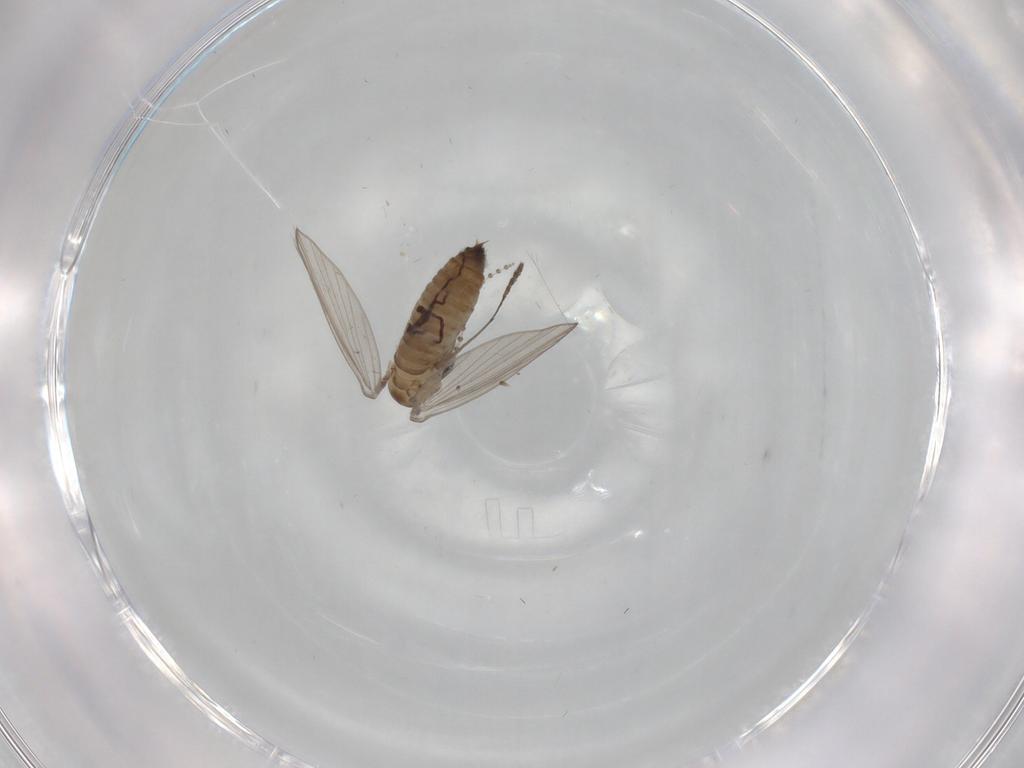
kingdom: Animalia
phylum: Arthropoda
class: Insecta
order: Diptera
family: Psychodidae
